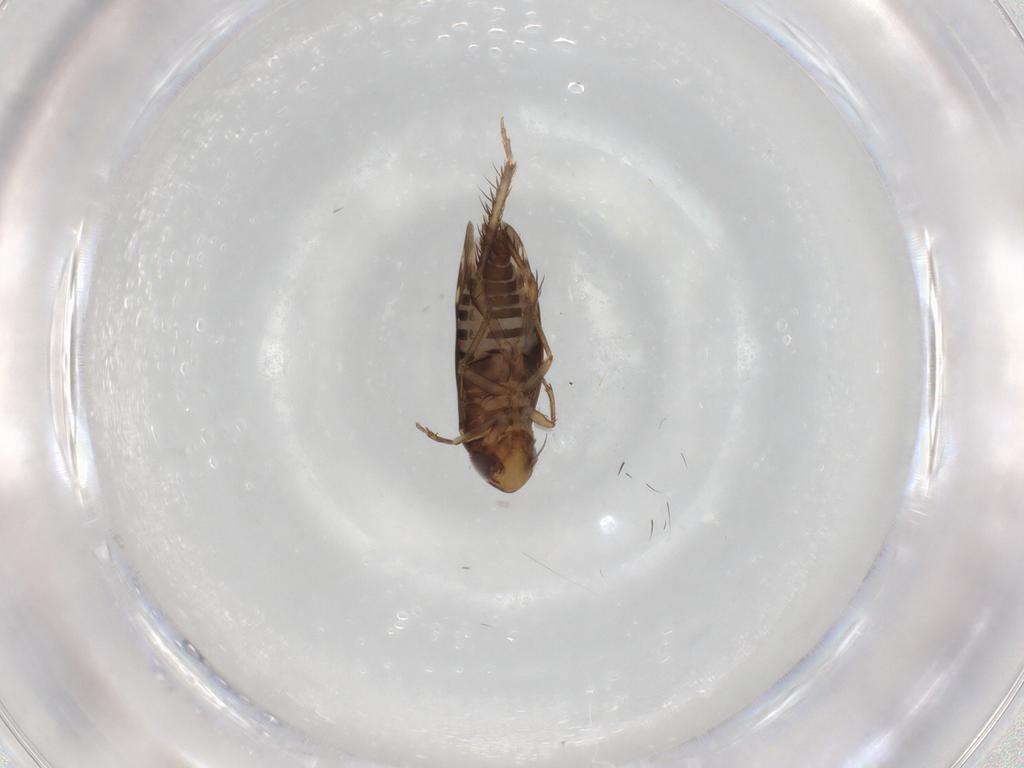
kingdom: Animalia
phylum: Arthropoda
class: Insecta
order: Hemiptera
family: Cicadellidae
